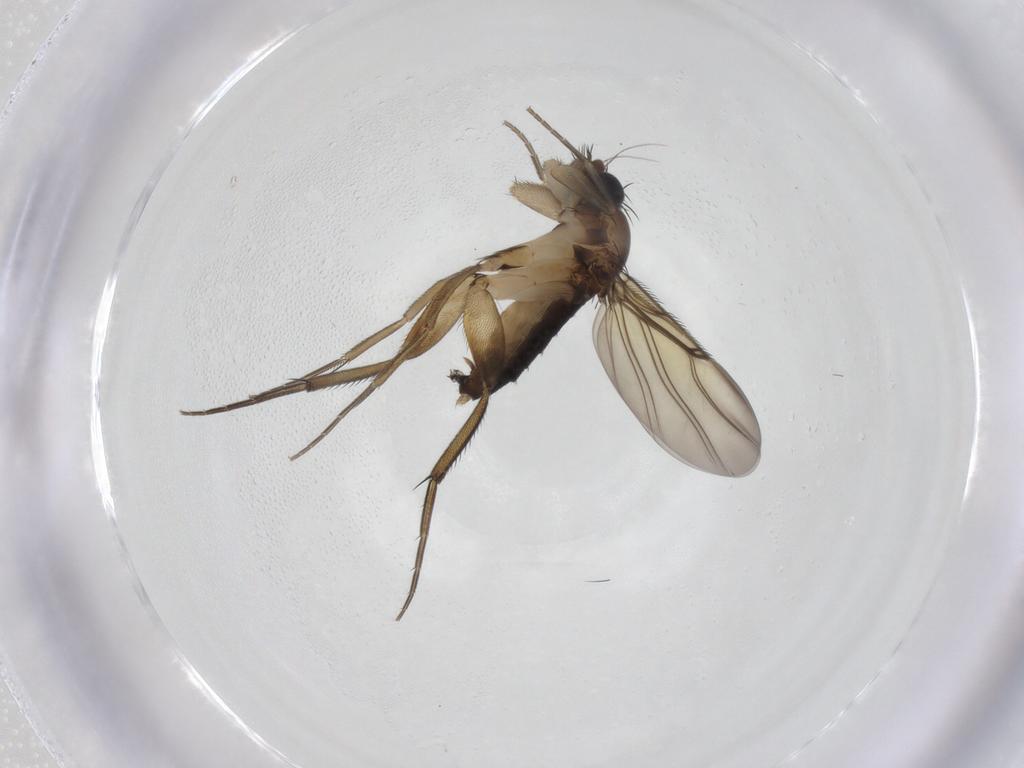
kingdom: Animalia
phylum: Arthropoda
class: Insecta
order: Diptera
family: Phoridae
